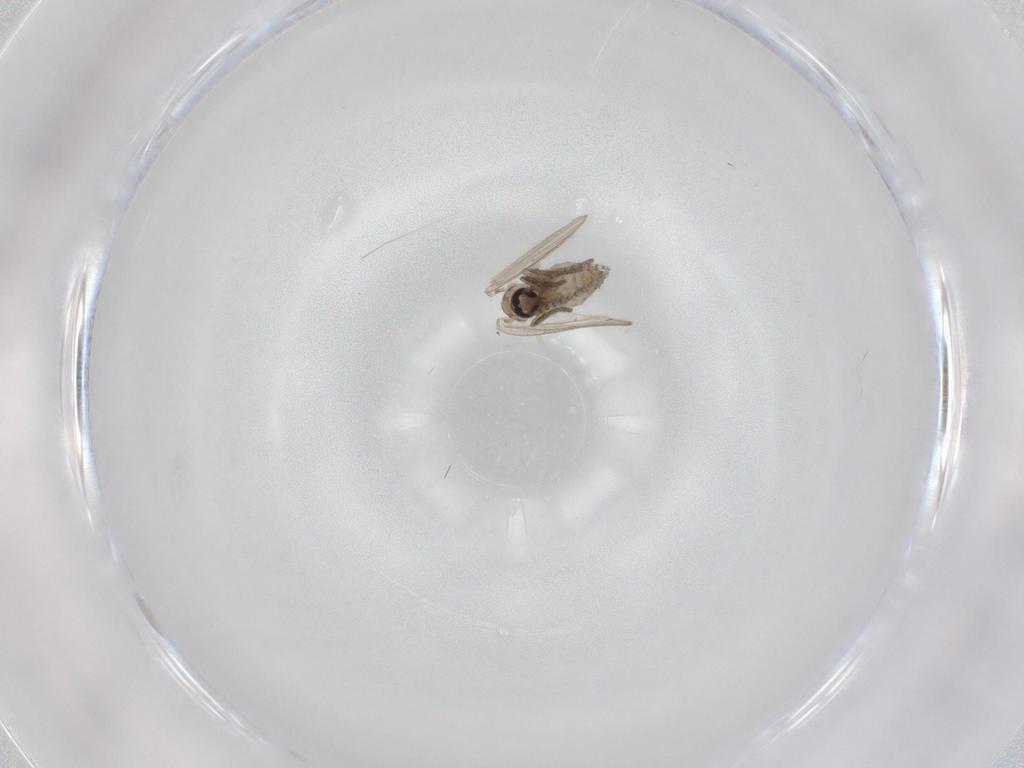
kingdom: Animalia
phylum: Arthropoda
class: Insecta
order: Diptera
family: Psychodidae
